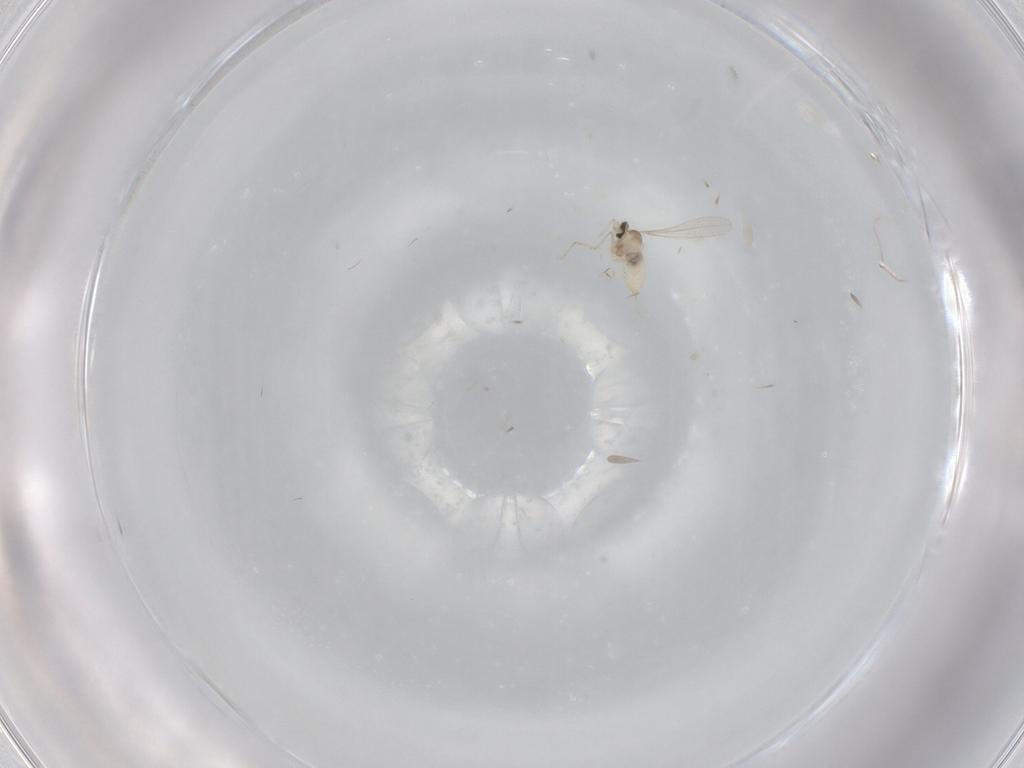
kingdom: Animalia
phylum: Arthropoda
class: Insecta
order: Diptera
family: Cecidomyiidae
